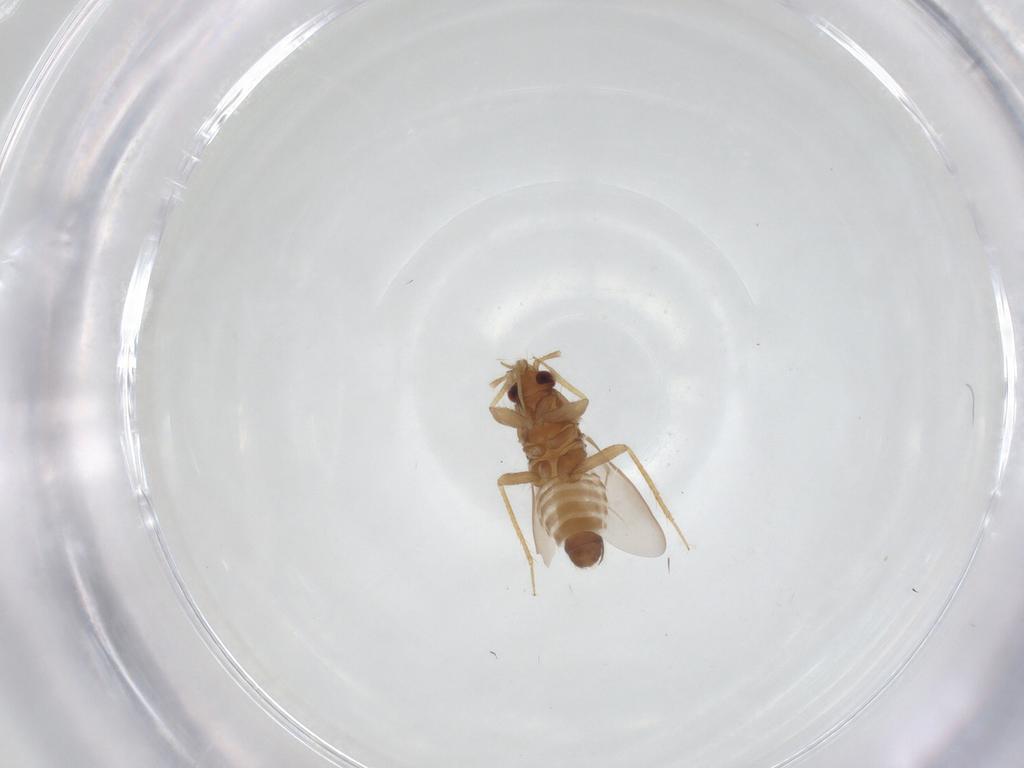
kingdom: Animalia
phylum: Arthropoda
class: Insecta
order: Hemiptera
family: Ceratocombidae
